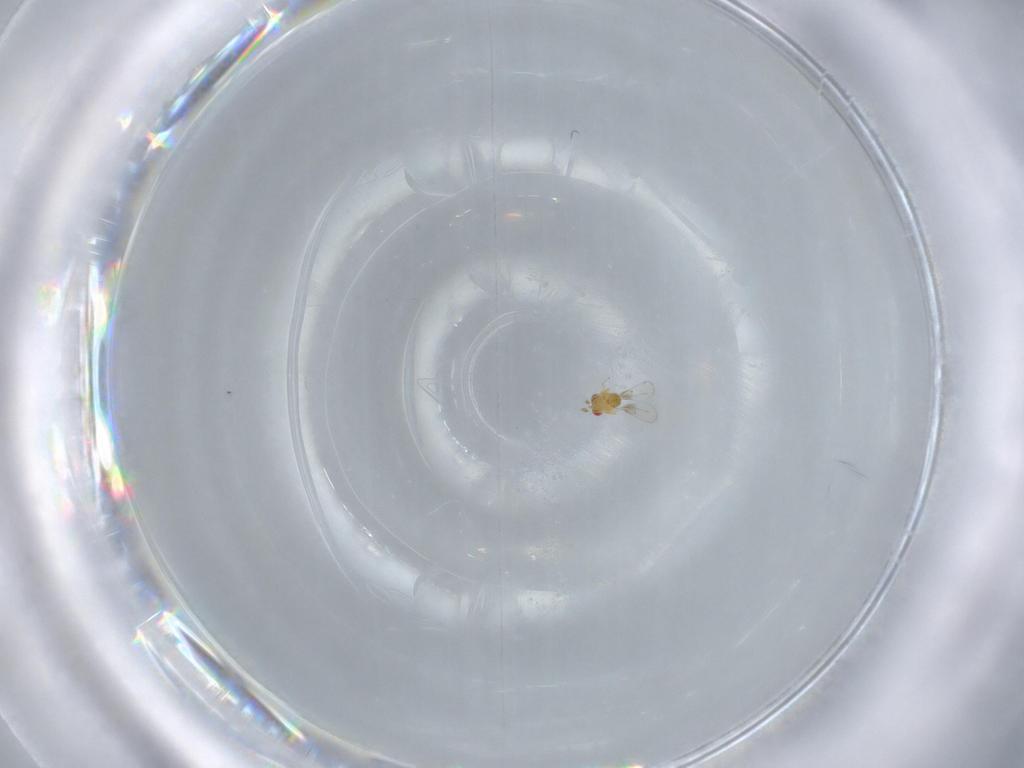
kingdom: Animalia
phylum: Arthropoda
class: Insecta
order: Hymenoptera
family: Trichogrammatidae
